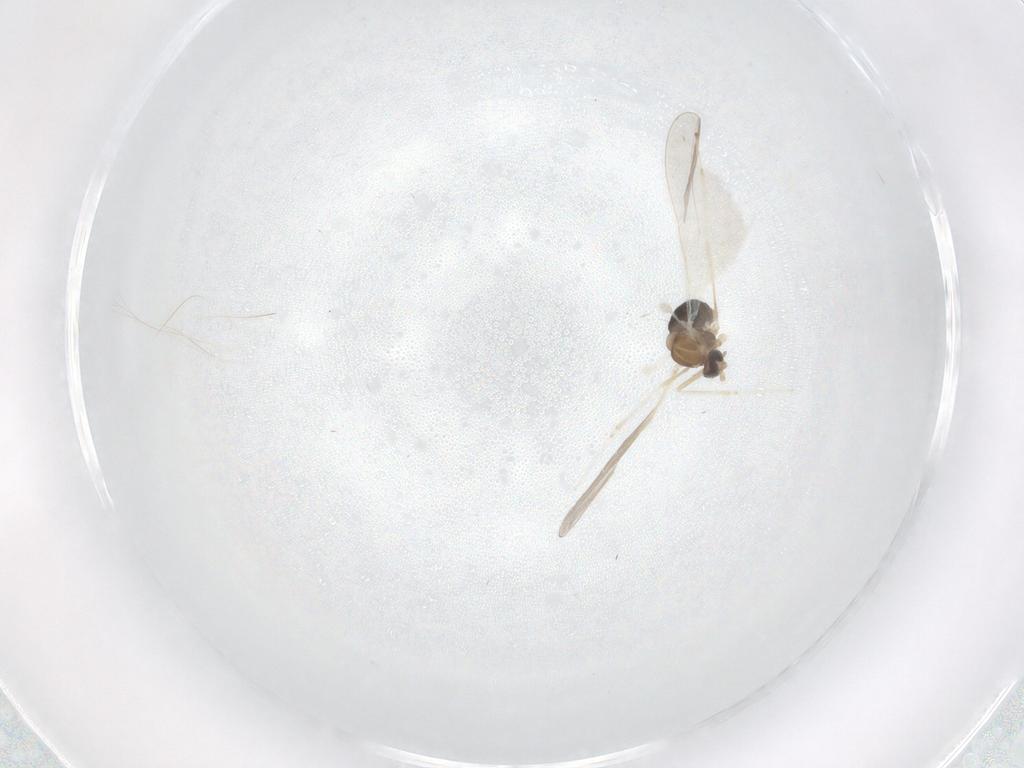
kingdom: Animalia
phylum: Arthropoda
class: Insecta
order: Diptera
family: Cecidomyiidae
